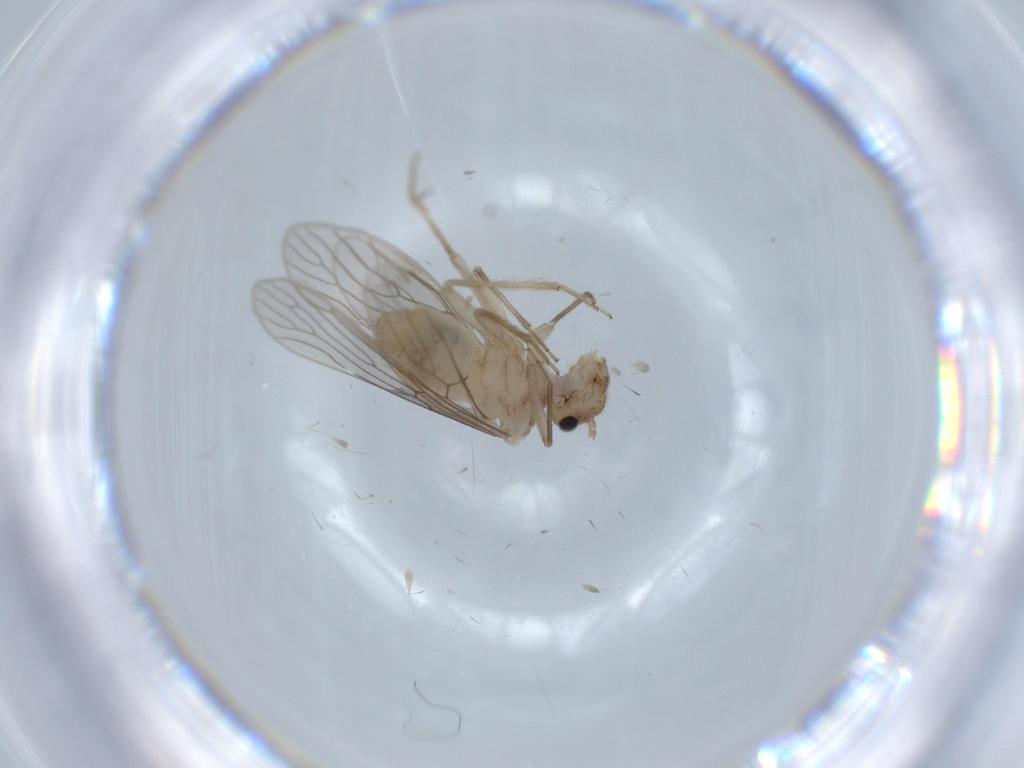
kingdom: Animalia
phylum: Arthropoda
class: Insecta
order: Psocodea
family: Cladiopsocidae
